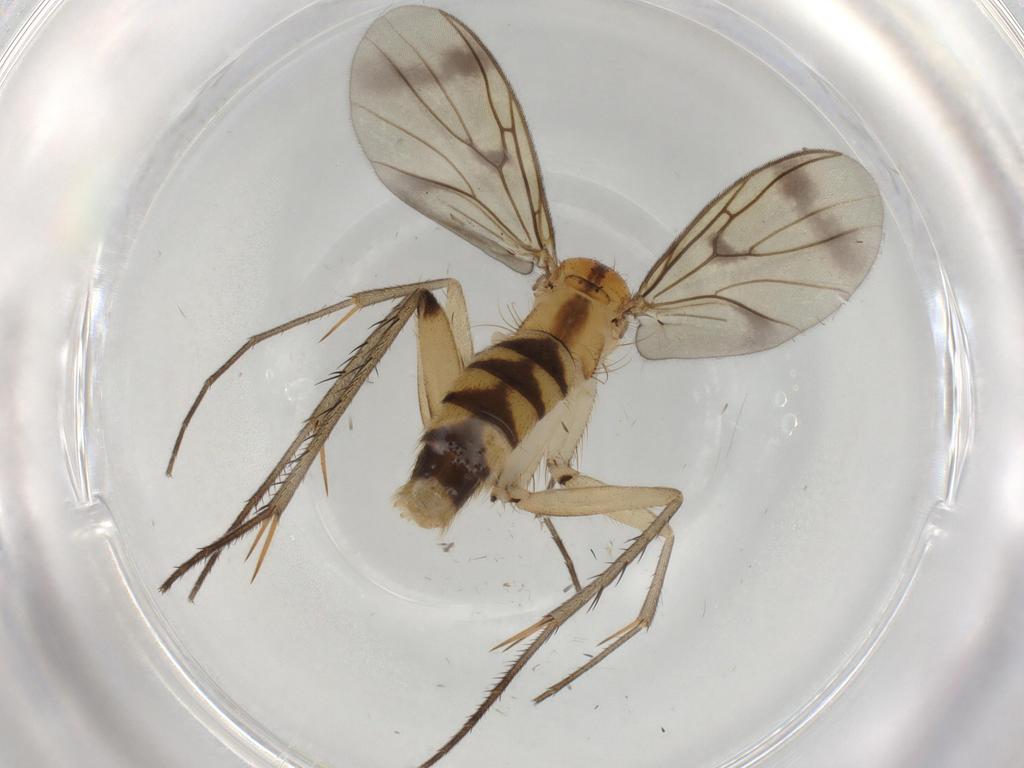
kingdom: Animalia
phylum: Arthropoda
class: Insecta
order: Diptera
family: Mycetophilidae
